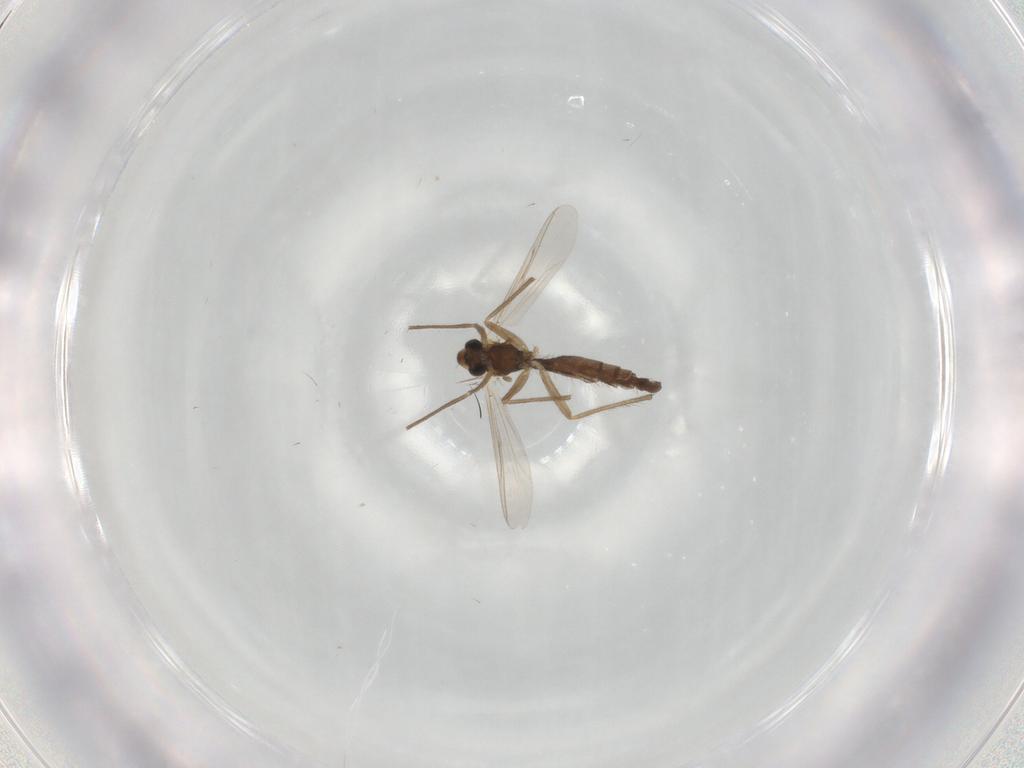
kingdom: Animalia
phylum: Arthropoda
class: Insecta
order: Diptera
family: Chironomidae
